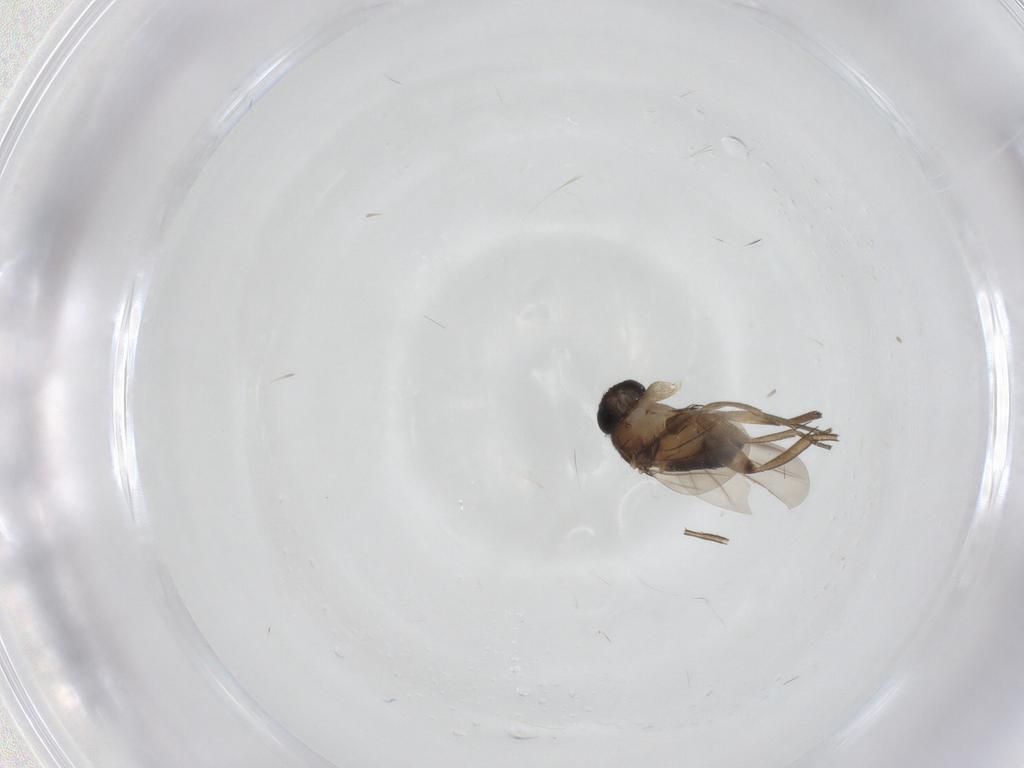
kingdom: Animalia
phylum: Arthropoda
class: Insecta
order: Diptera
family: Phoridae
